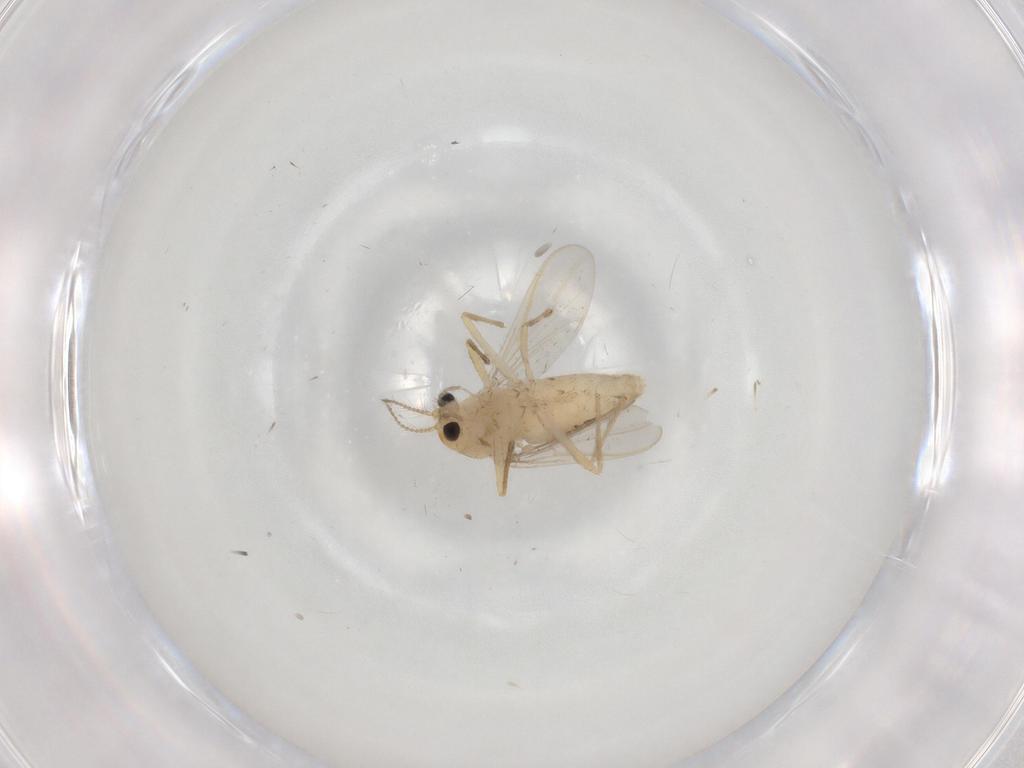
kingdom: Animalia
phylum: Arthropoda
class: Insecta
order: Diptera
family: Chironomidae
